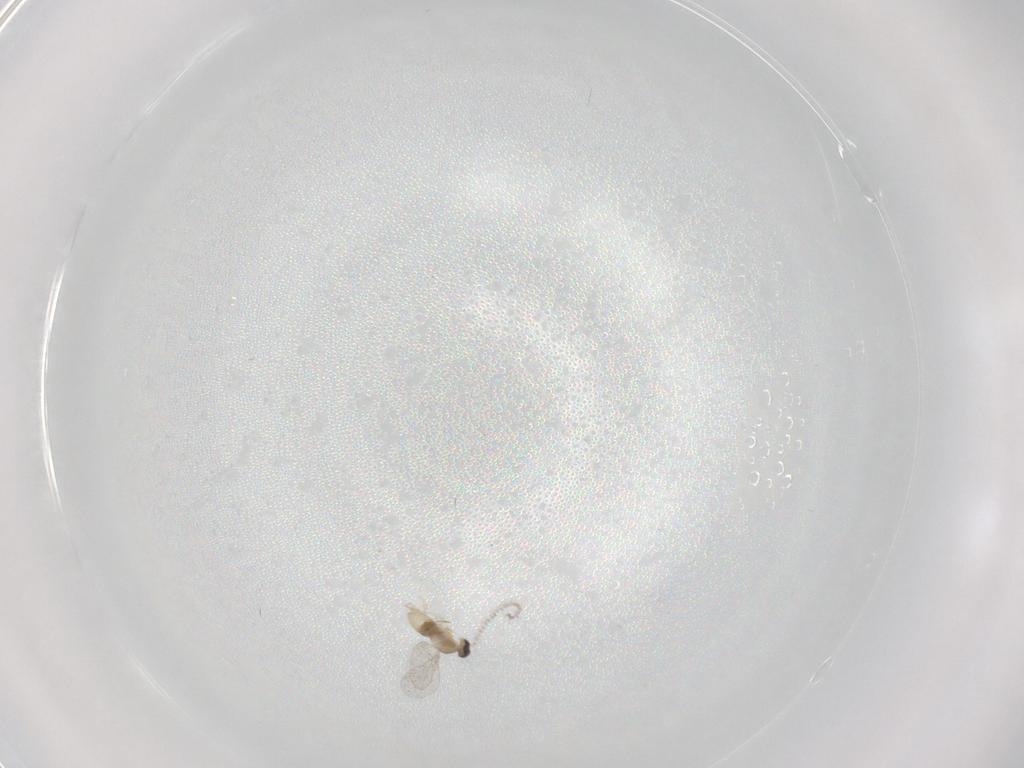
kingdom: Animalia
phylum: Arthropoda
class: Insecta
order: Diptera
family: Cecidomyiidae
